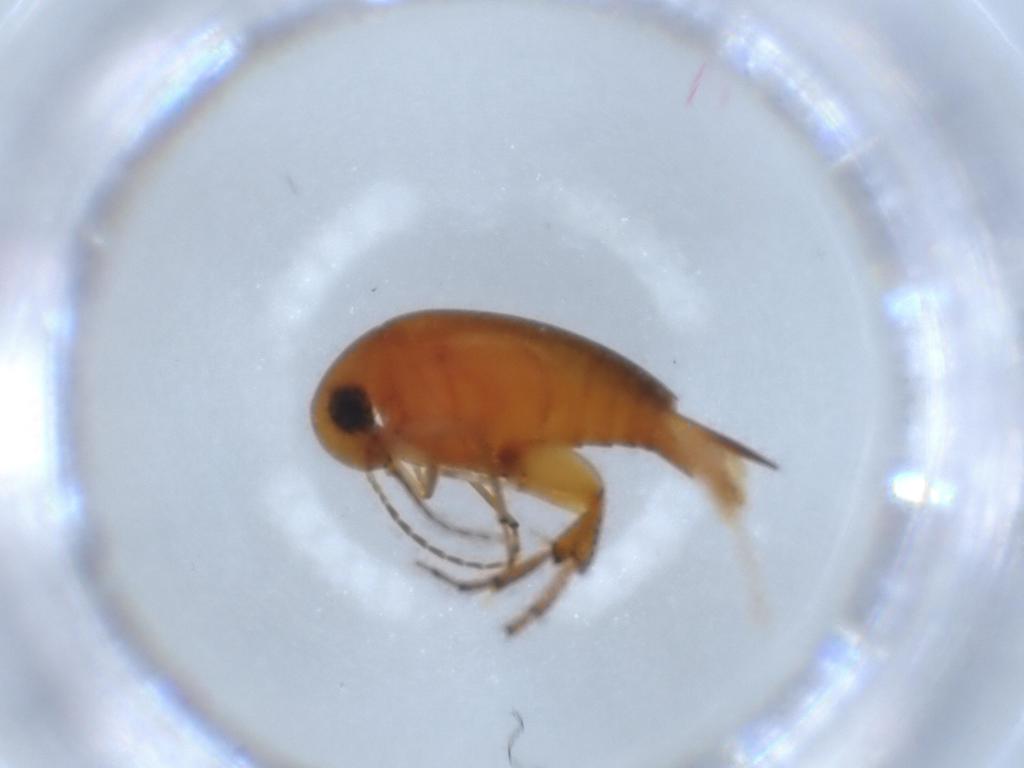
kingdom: Animalia
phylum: Arthropoda
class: Insecta
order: Coleoptera
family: Mordellidae
